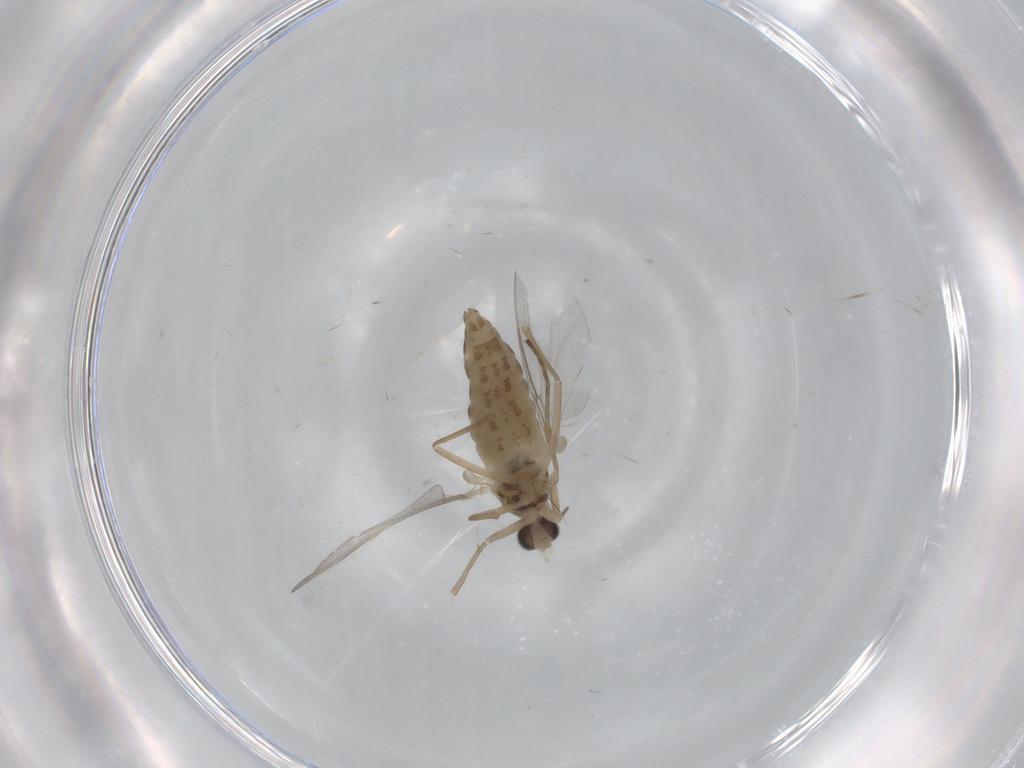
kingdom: Animalia
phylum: Arthropoda
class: Insecta
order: Diptera
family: Cecidomyiidae
